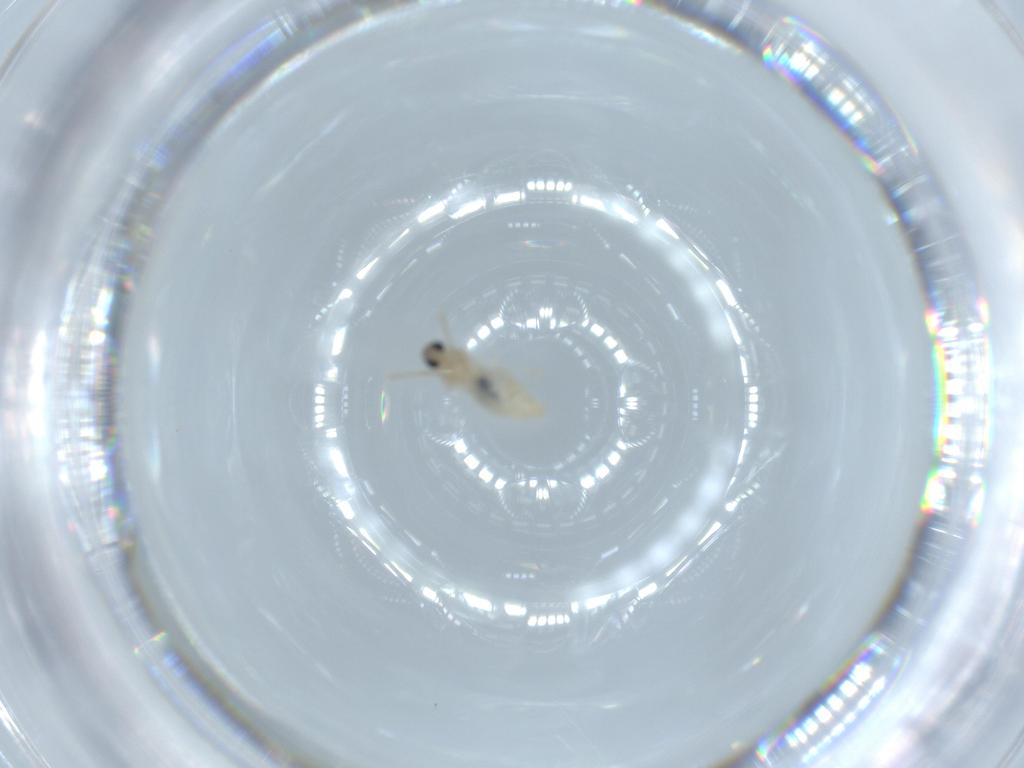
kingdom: Animalia
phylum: Arthropoda
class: Insecta
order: Diptera
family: Cecidomyiidae
